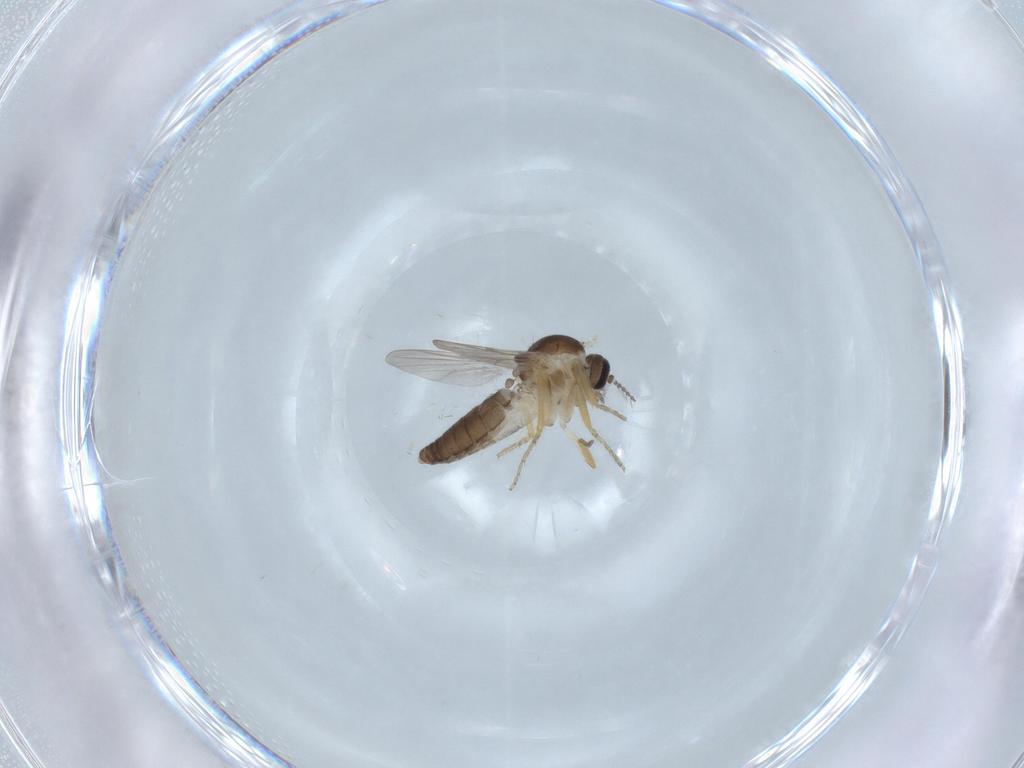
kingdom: Animalia
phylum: Arthropoda
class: Insecta
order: Diptera
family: Ceratopogonidae
